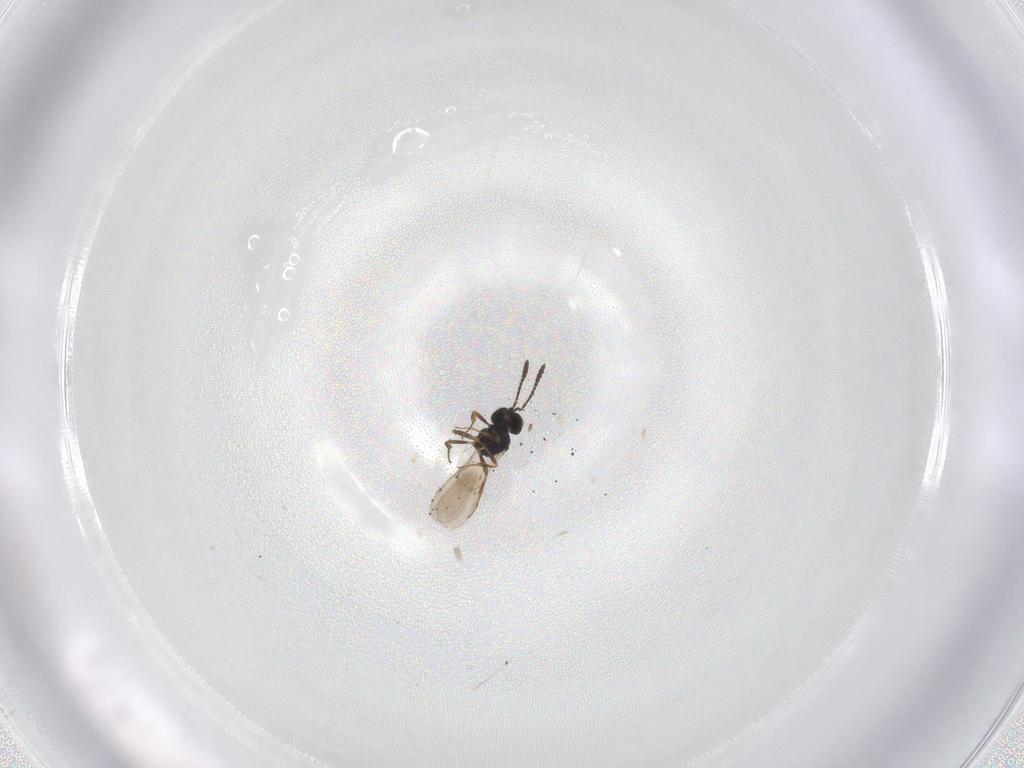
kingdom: Animalia
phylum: Arthropoda
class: Insecta
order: Hymenoptera
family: Scelionidae
